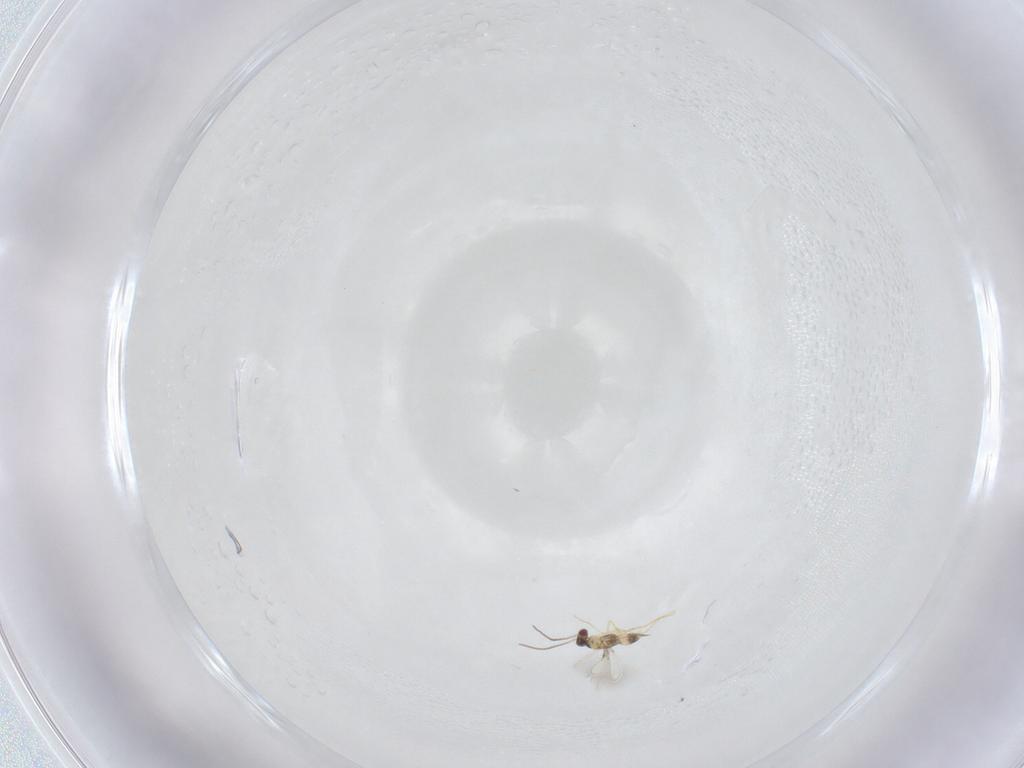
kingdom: Animalia
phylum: Arthropoda
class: Insecta
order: Hymenoptera
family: Mymaridae
